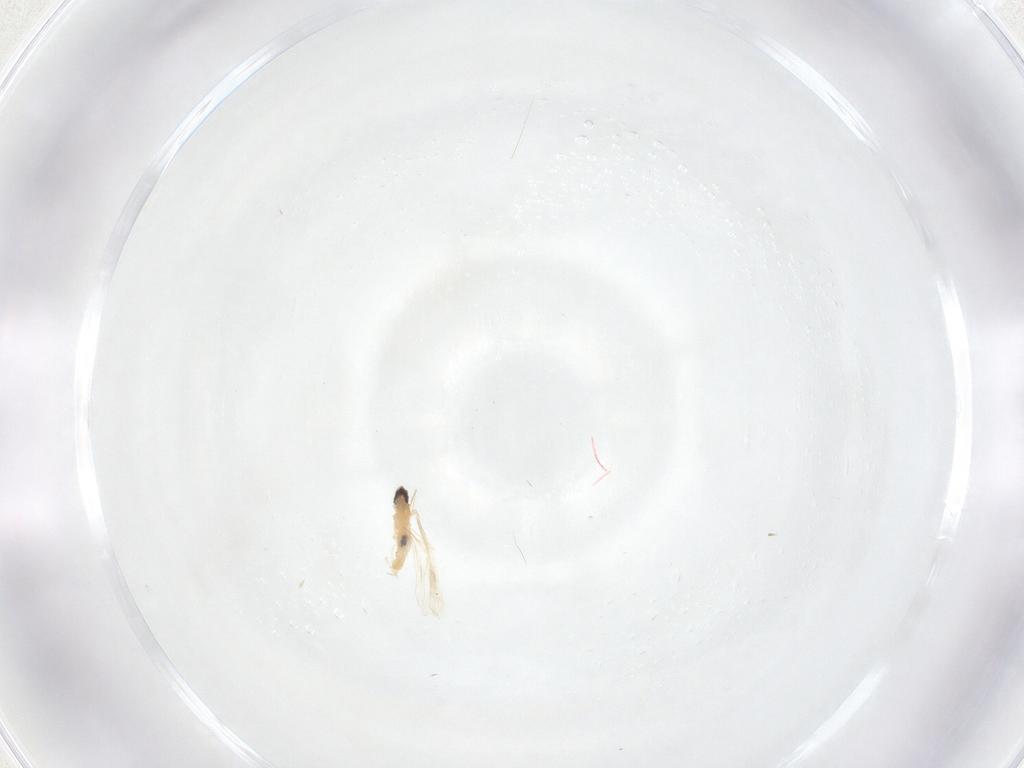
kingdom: Animalia
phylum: Arthropoda
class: Insecta
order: Diptera
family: Cecidomyiidae
